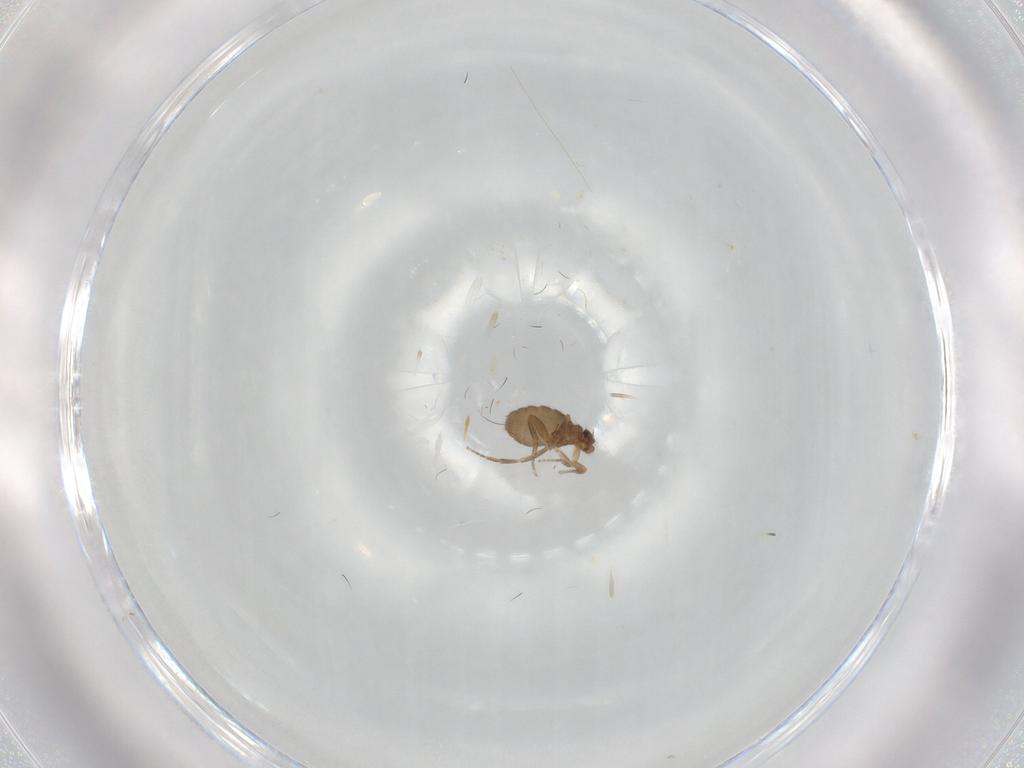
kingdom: Animalia
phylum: Arthropoda
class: Insecta
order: Diptera
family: Phoridae
